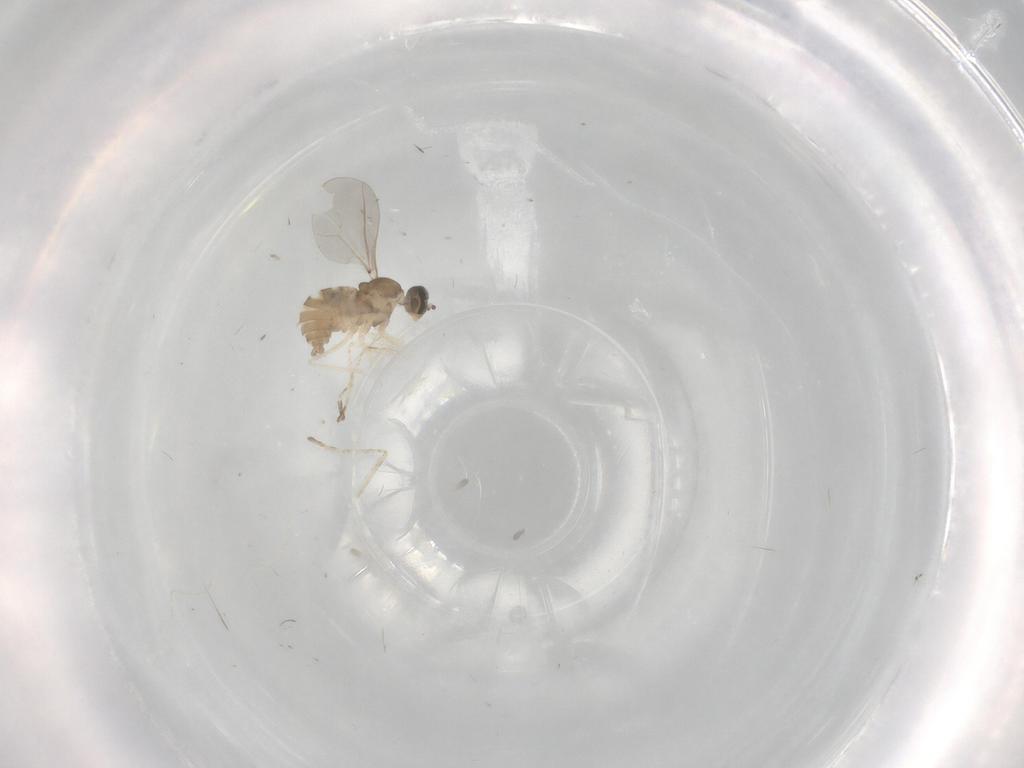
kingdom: Animalia
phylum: Arthropoda
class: Insecta
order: Diptera
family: Cecidomyiidae
